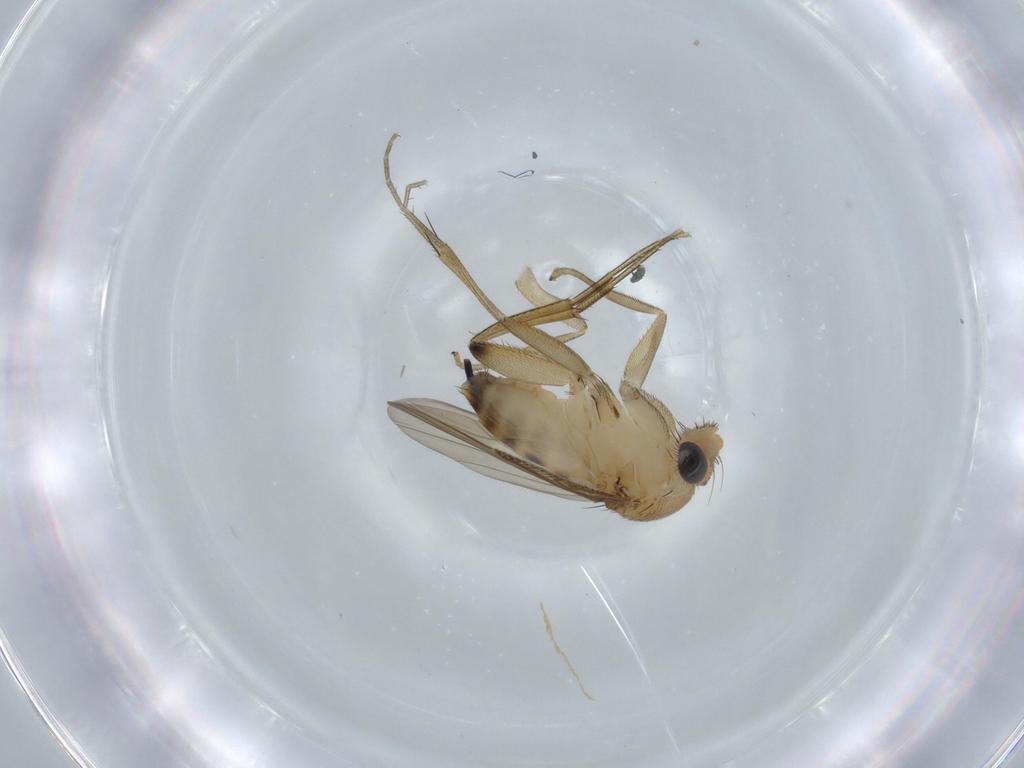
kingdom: Animalia
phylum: Arthropoda
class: Insecta
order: Diptera
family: Phoridae
